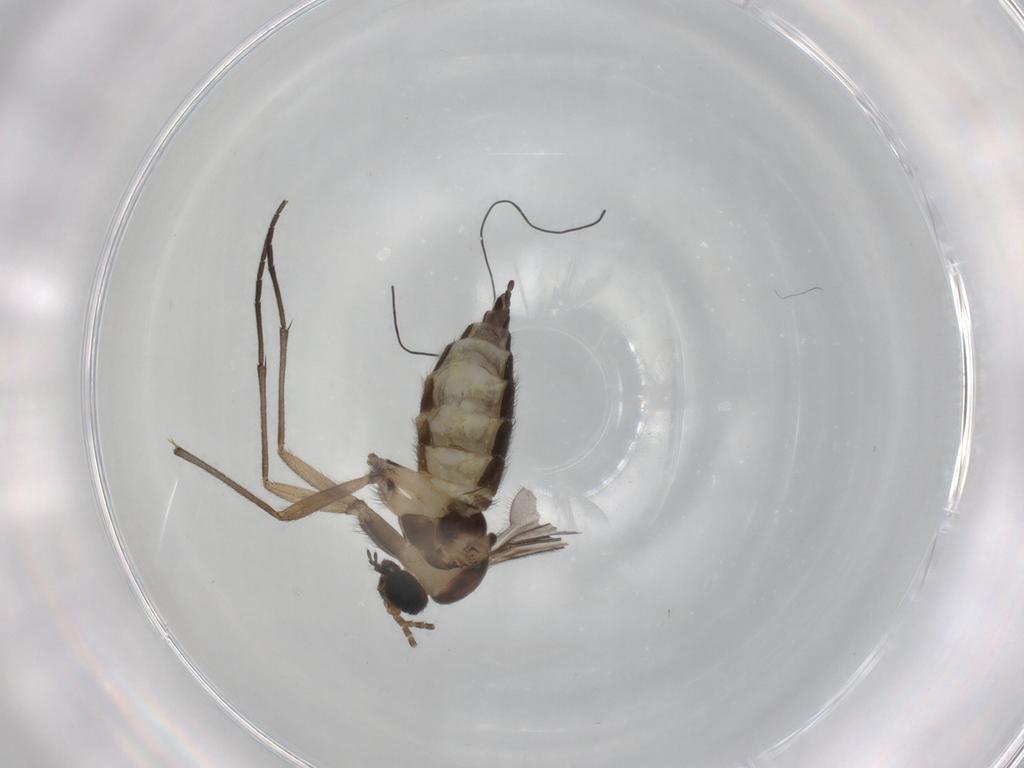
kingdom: Animalia
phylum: Arthropoda
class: Insecta
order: Diptera
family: Sciaridae
